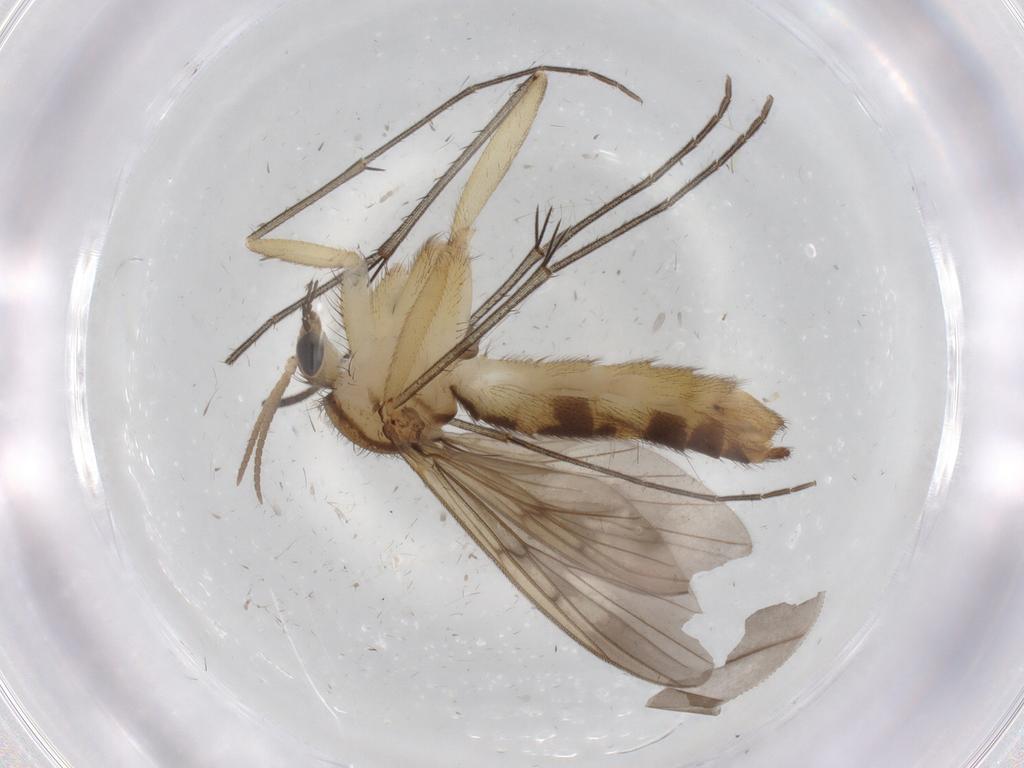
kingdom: Animalia
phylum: Arthropoda
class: Insecta
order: Diptera
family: Mycetophilidae
